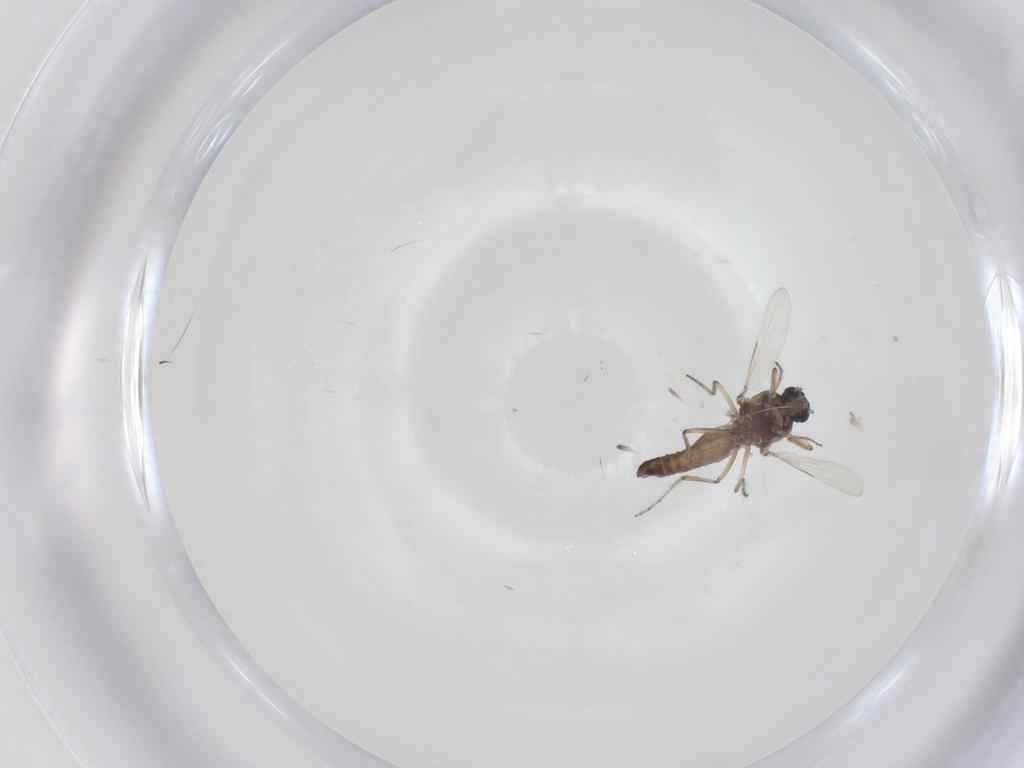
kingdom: Animalia
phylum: Arthropoda
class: Insecta
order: Diptera
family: Ceratopogonidae
